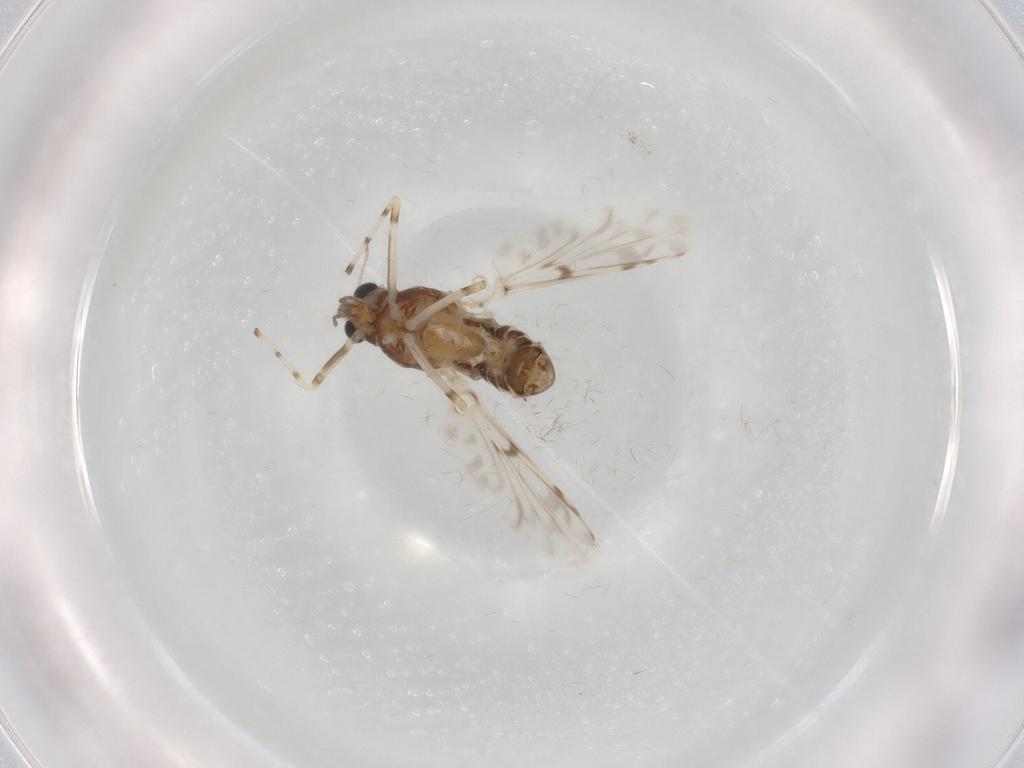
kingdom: Animalia
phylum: Arthropoda
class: Insecta
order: Diptera
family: Chironomidae
